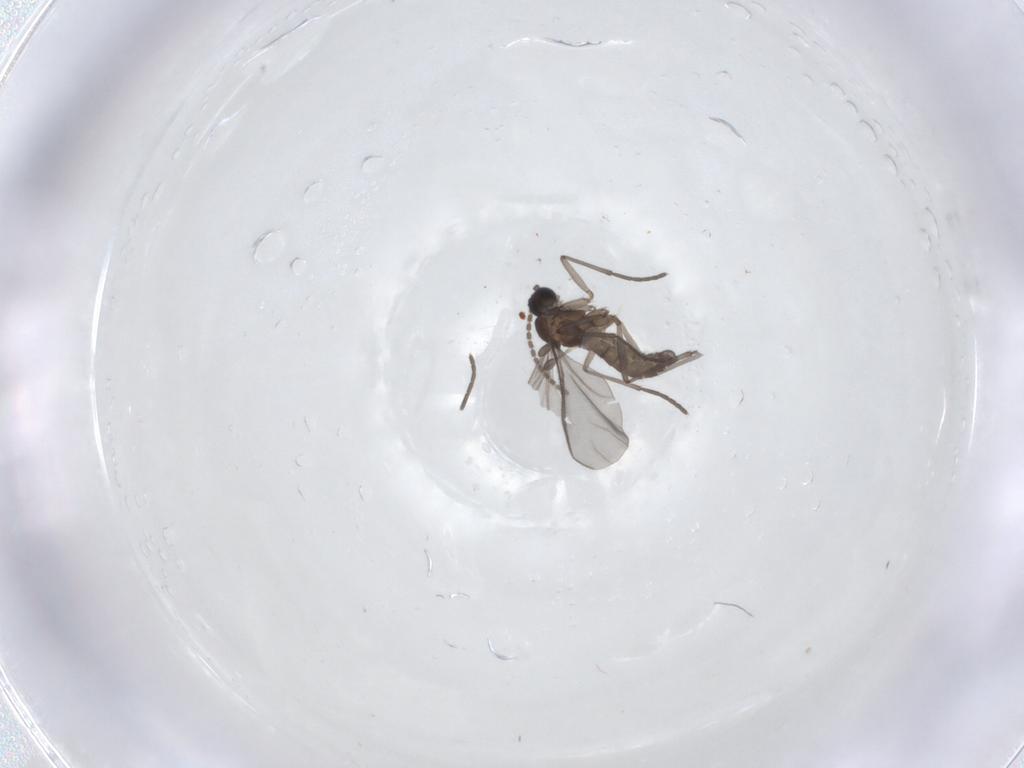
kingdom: Animalia
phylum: Arthropoda
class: Insecta
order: Diptera
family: Sciaridae
